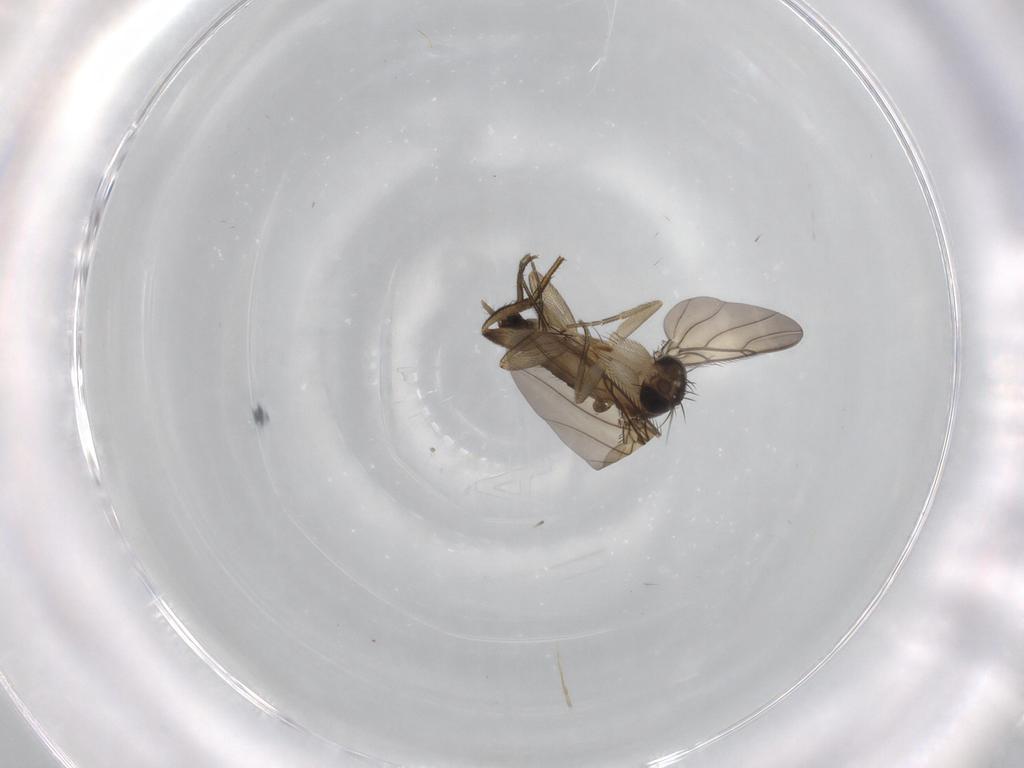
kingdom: Animalia
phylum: Arthropoda
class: Insecta
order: Diptera
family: Phoridae
